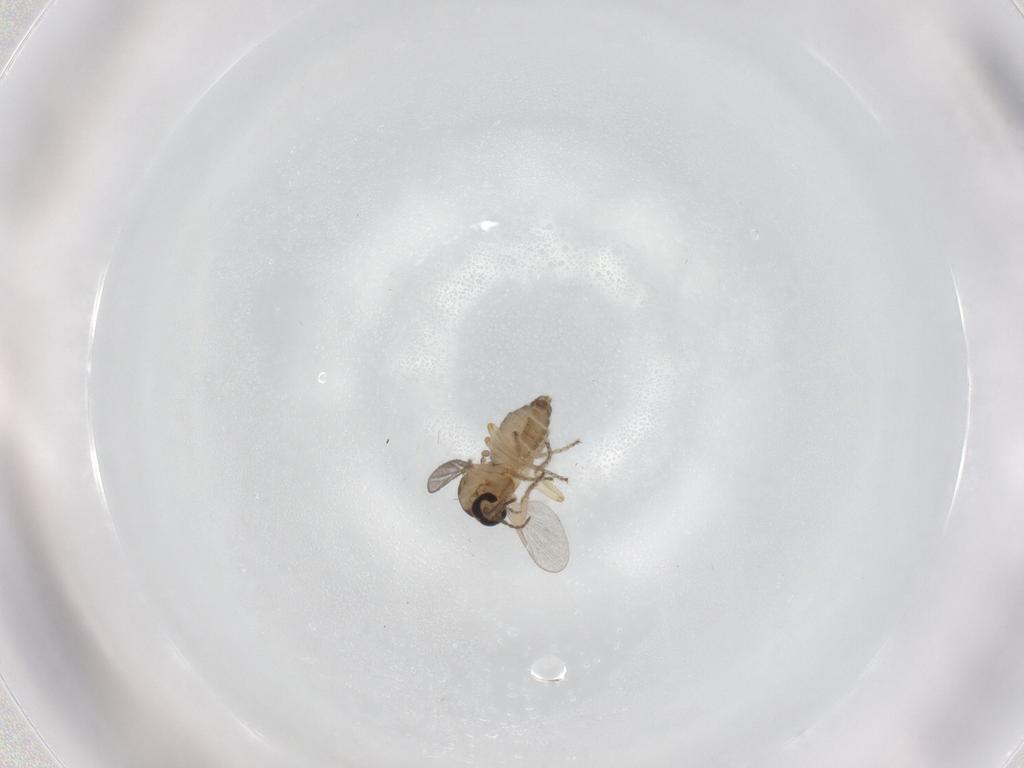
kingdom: Animalia
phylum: Arthropoda
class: Insecta
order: Diptera
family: Ceratopogonidae
